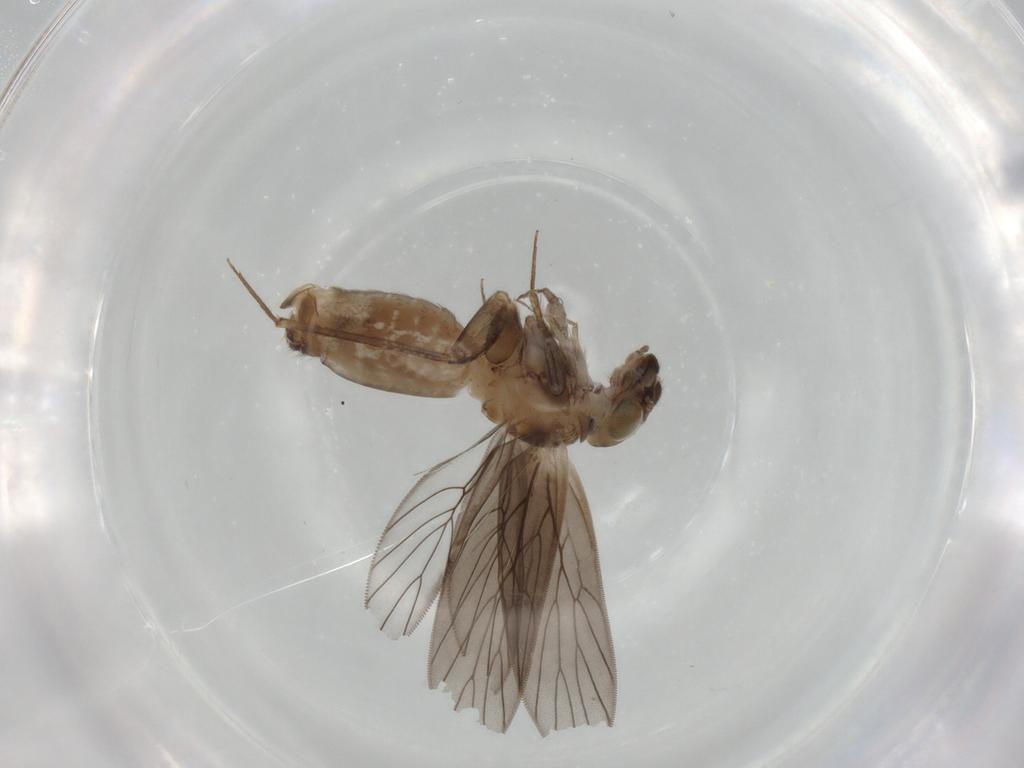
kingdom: Animalia
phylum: Arthropoda
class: Insecta
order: Psocodea
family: Lepidopsocidae
